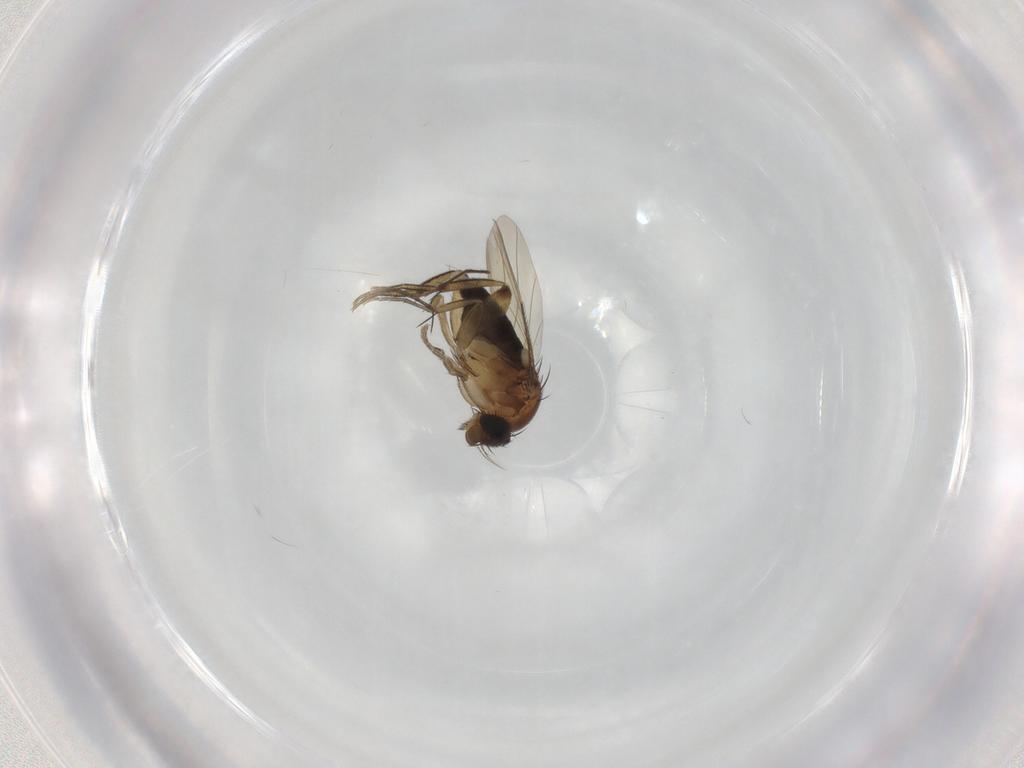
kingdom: Animalia
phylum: Arthropoda
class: Insecta
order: Diptera
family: Phoridae
